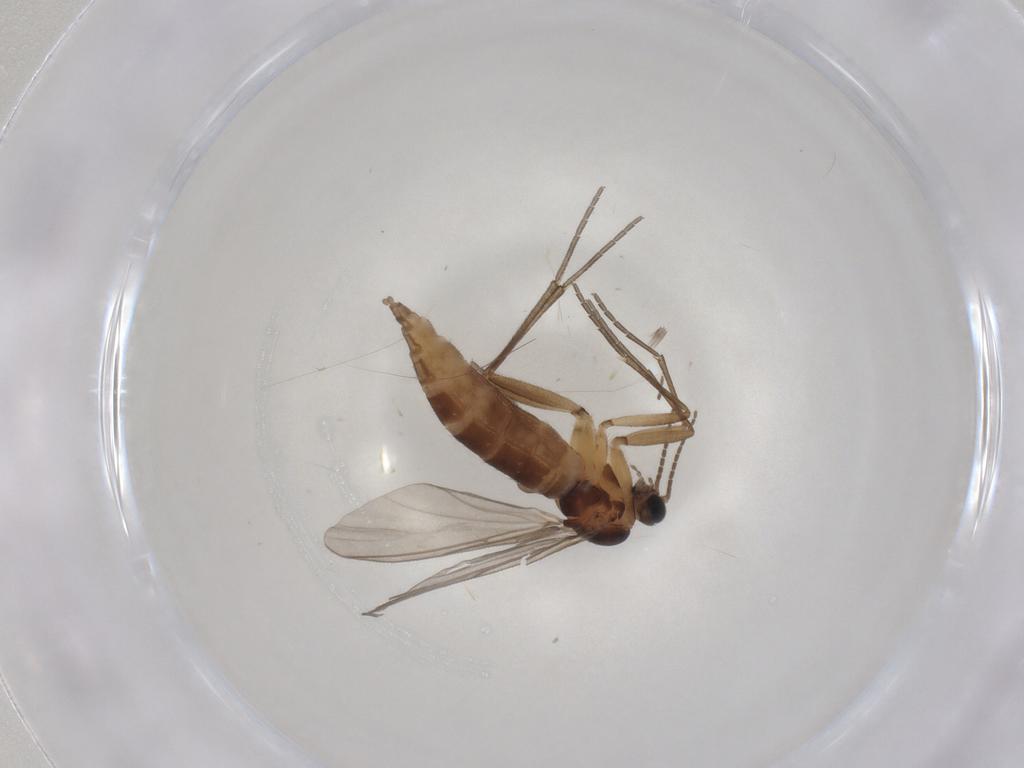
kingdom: Animalia
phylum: Arthropoda
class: Insecta
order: Diptera
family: Sciaridae
